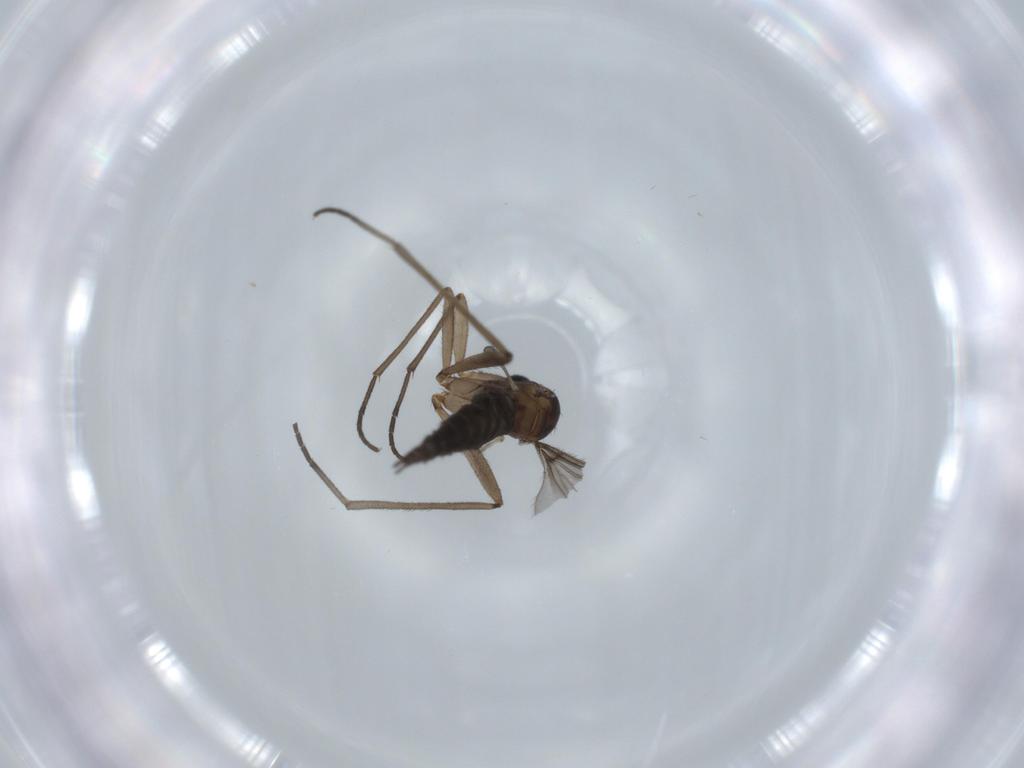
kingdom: Animalia
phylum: Arthropoda
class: Insecta
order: Diptera
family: Sciaridae
